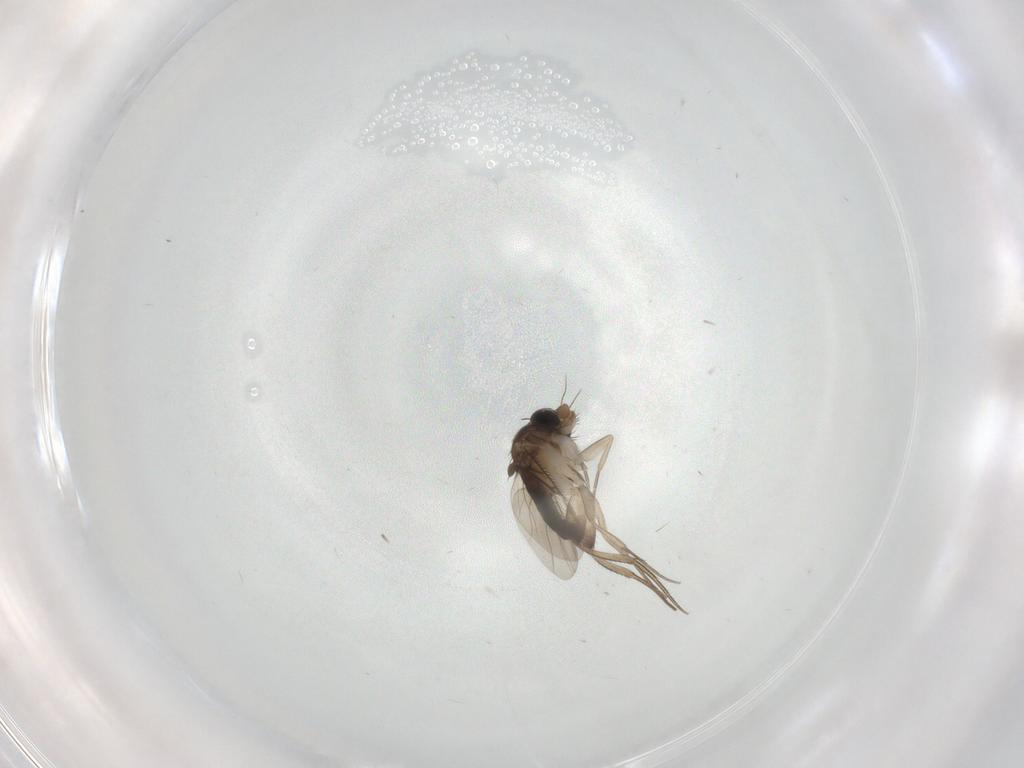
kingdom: Animalia
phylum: Arthropoda
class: Insecta
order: Diptera
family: Phoridae
